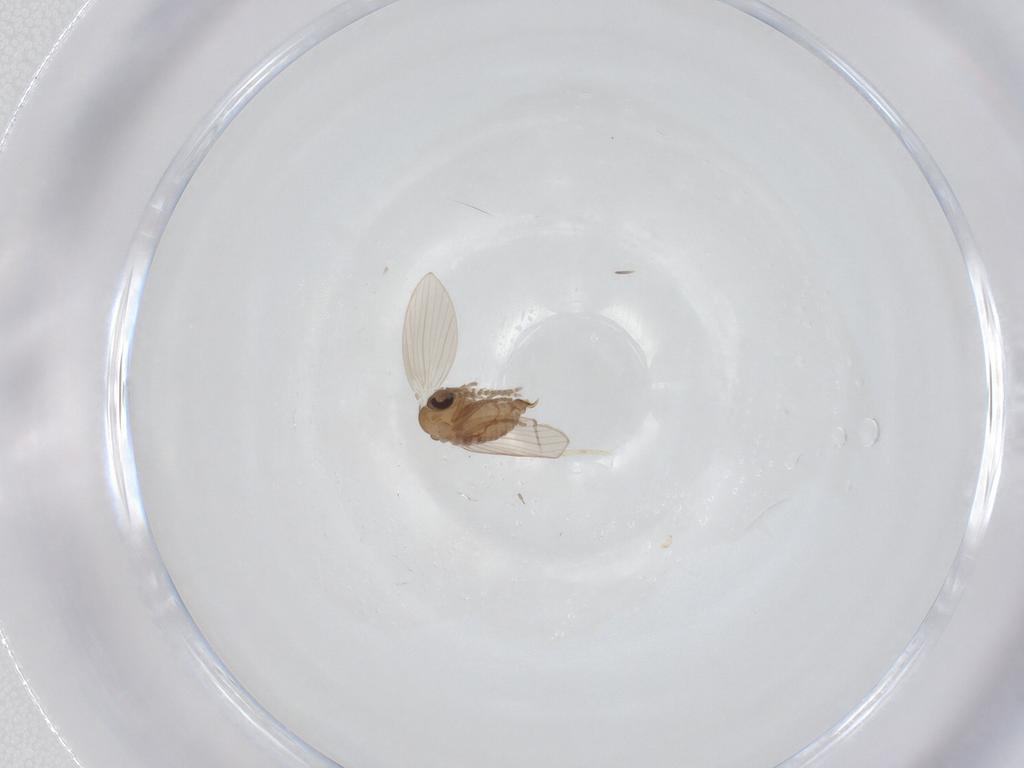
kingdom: Animalia
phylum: Arthropoda
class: Insecta
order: Diptera
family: Psychodidae
